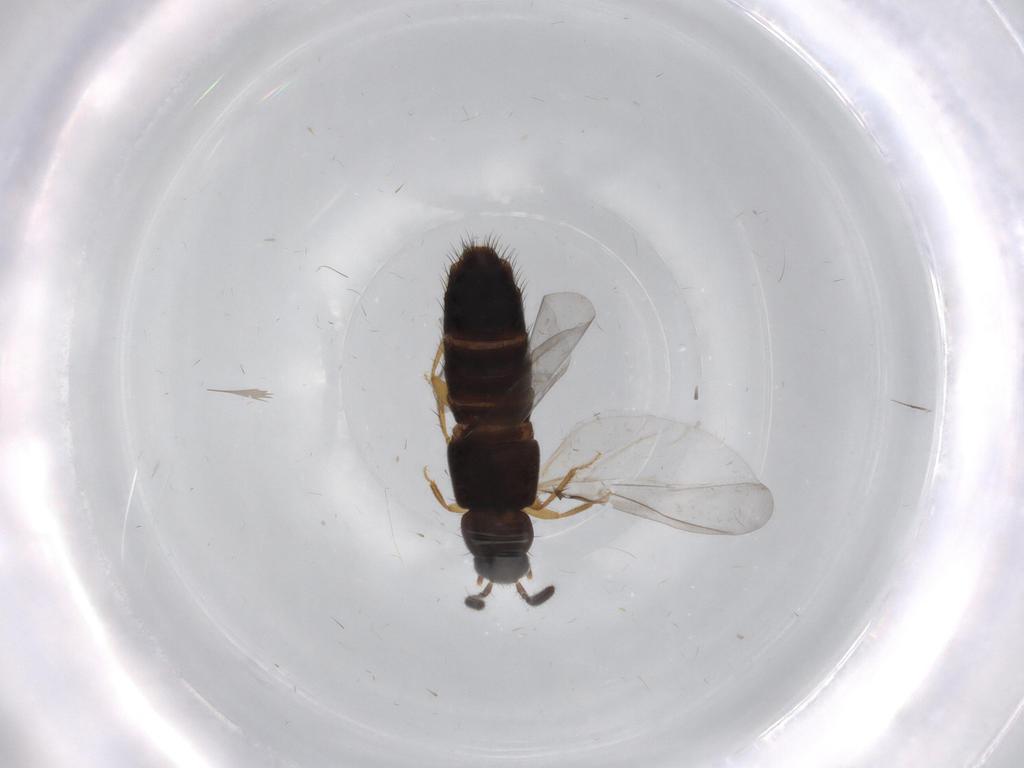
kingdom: Animalia
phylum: Arthropoda
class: Insecta
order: Coleoptera
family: Staphylinidae
